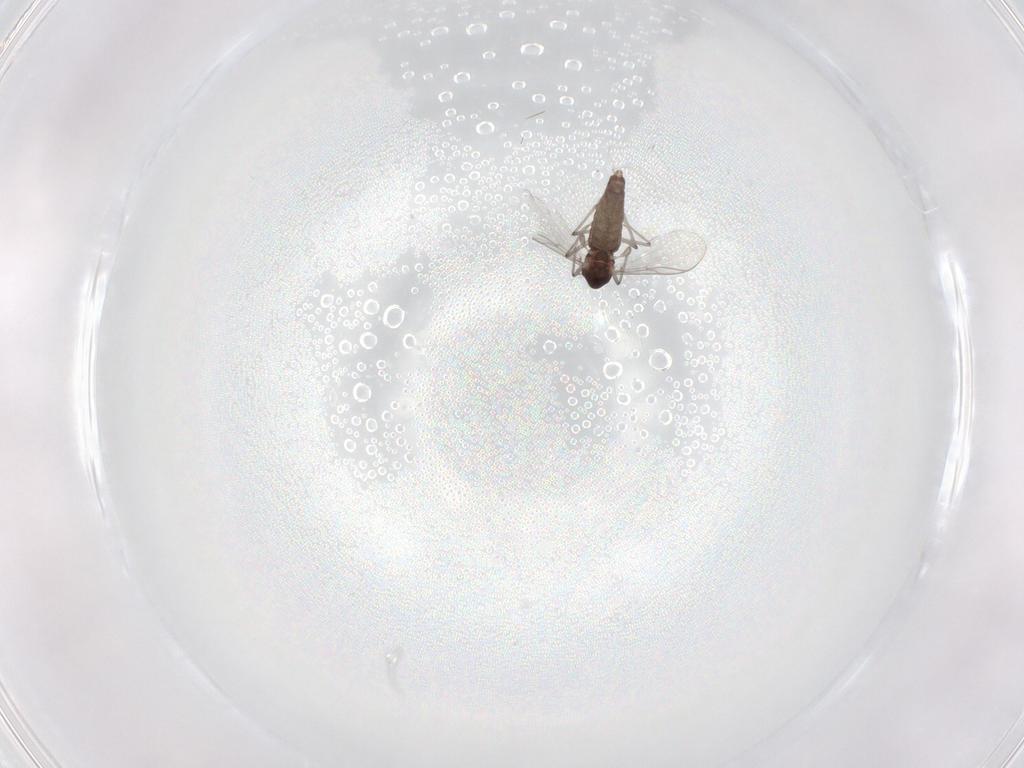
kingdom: Animalia
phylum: Arthropoda
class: Insecta
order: Diptera
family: Chironomidae
